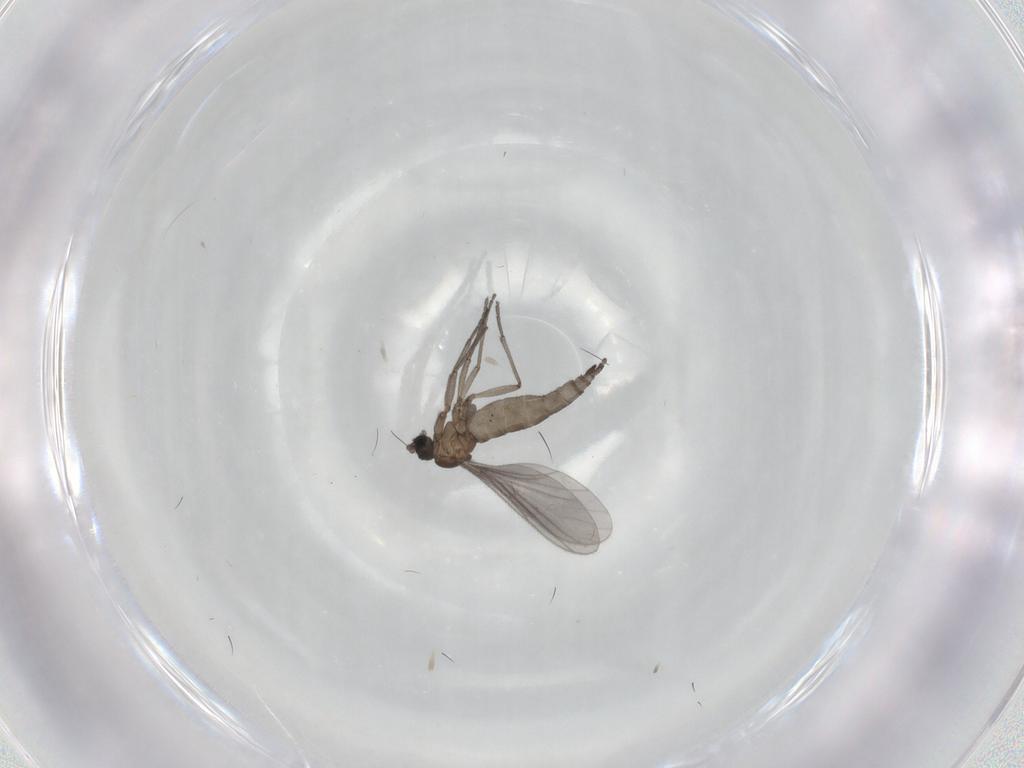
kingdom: Animalia
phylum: Arthropoda
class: Insecta
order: Diptera
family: Sciaridae
